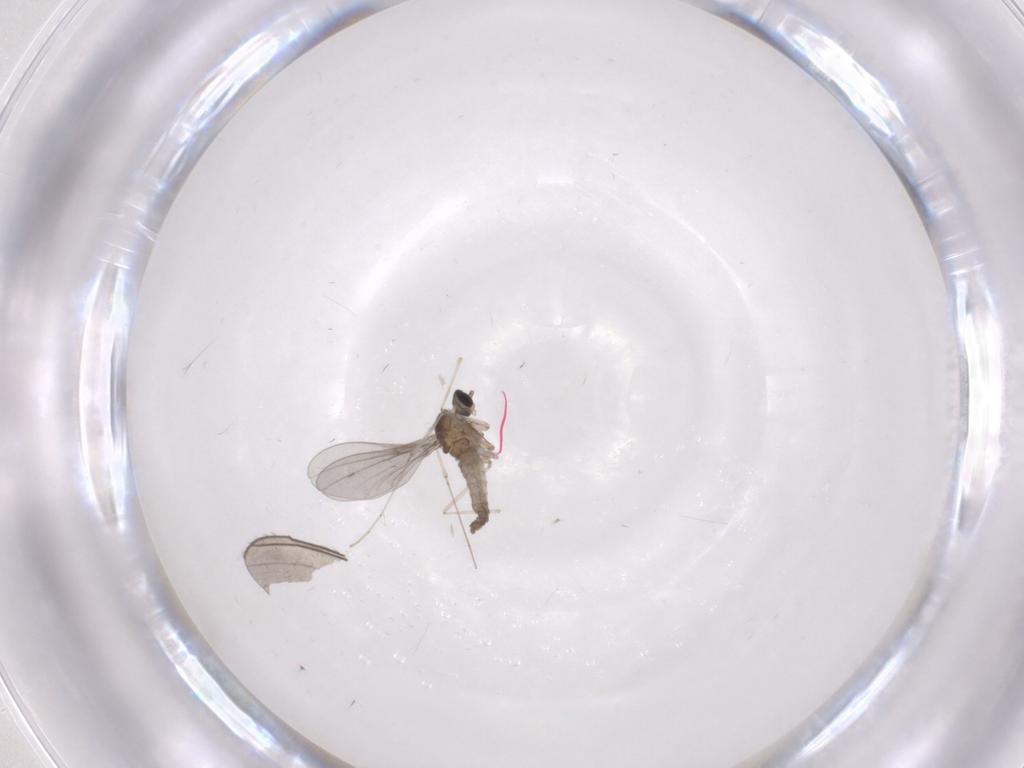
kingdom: Animalia
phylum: Arthropoda
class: Insecta
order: Diptera
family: Cecidomyiidae
